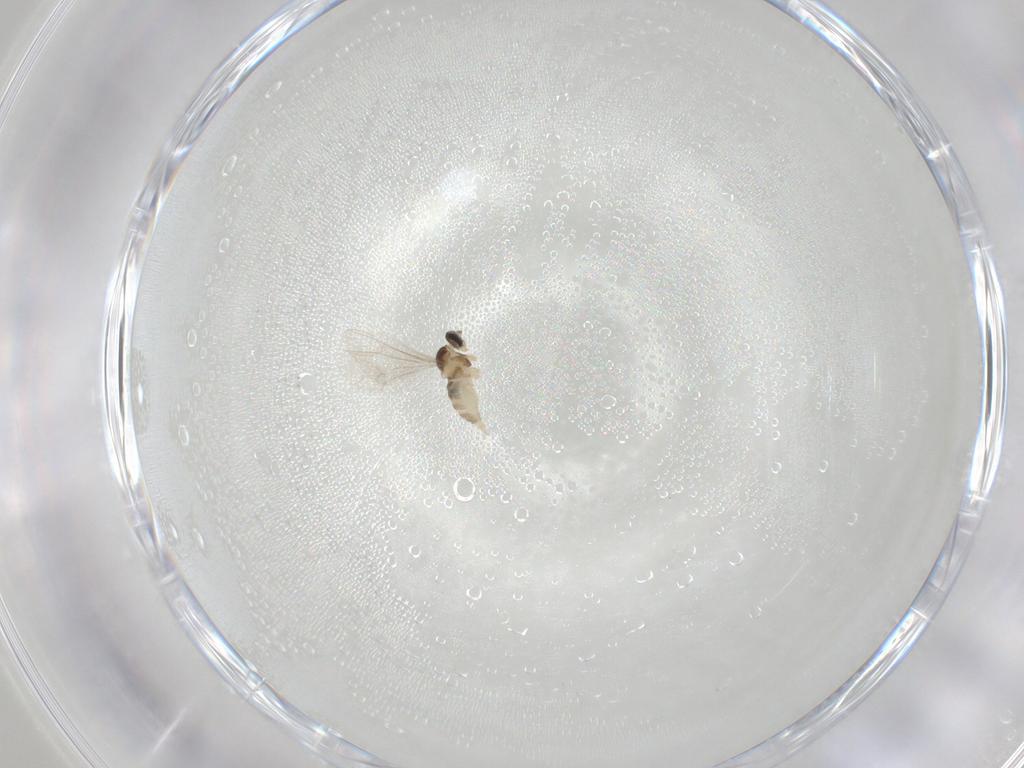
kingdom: Animalia
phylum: Arthropoda
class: Insecta
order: Diptera
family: Cecidomyiidae
